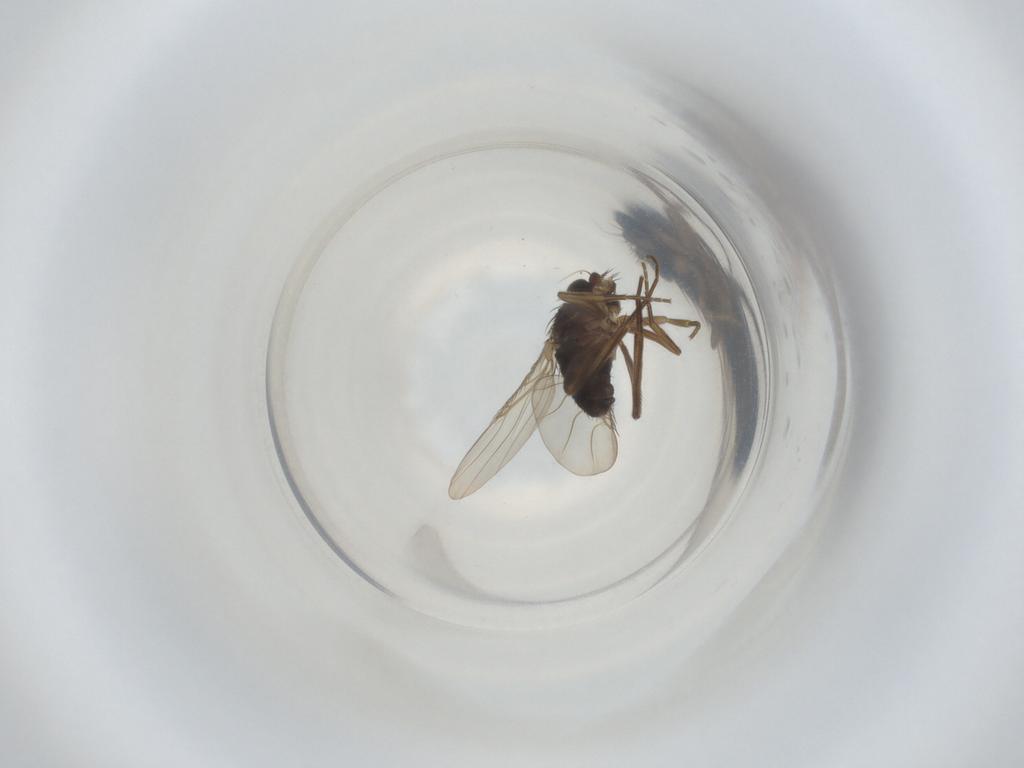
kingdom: Animalia
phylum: Arthropoda
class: Insecta
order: Diptera
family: Phoridae
